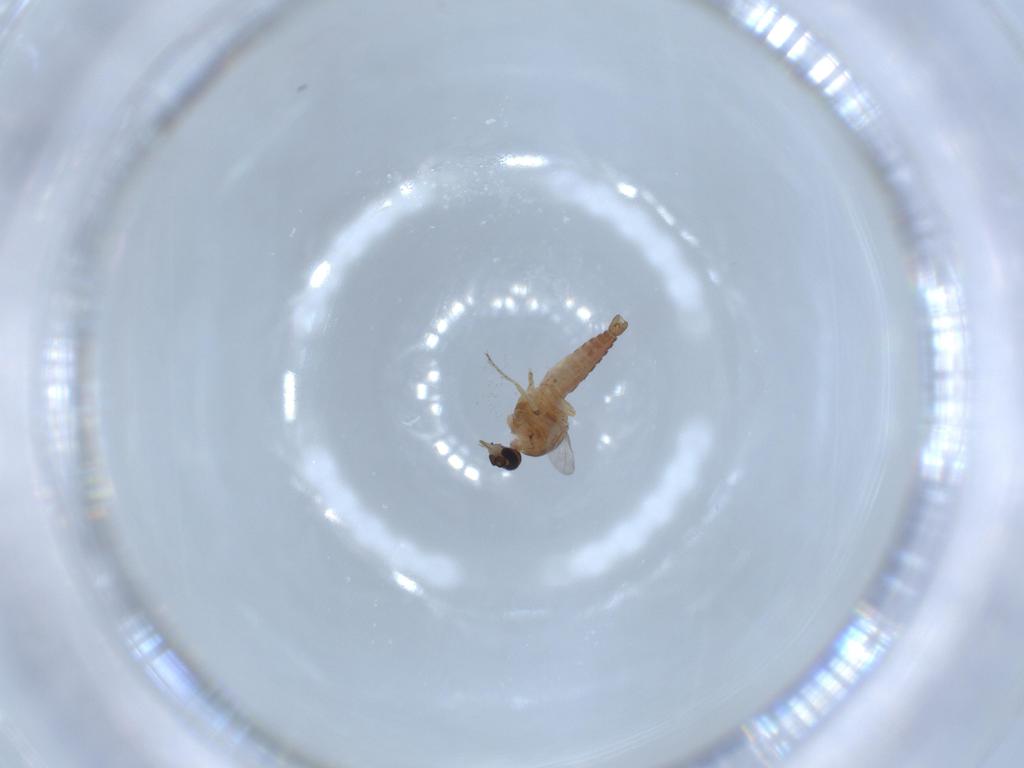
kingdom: Animalia
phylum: Arthropoda
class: Insecta
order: Diptera
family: Ceratopogonidae
